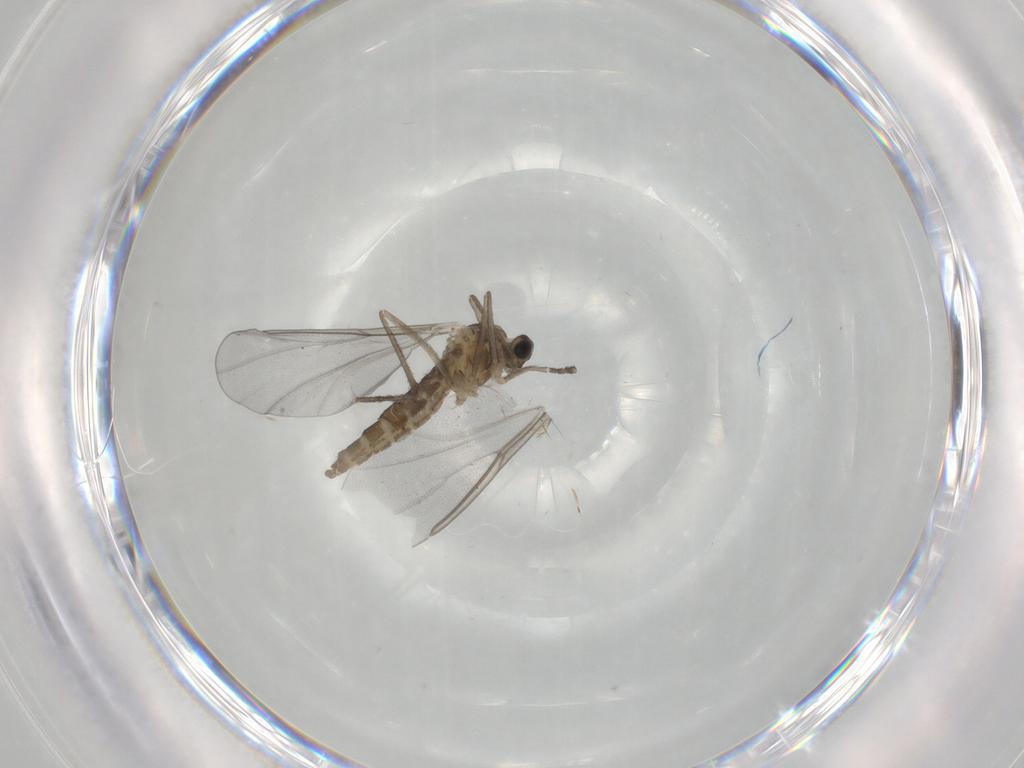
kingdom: Animalia
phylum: Arthropoda
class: Insecta
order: Diptera
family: Cecidomyiidae
